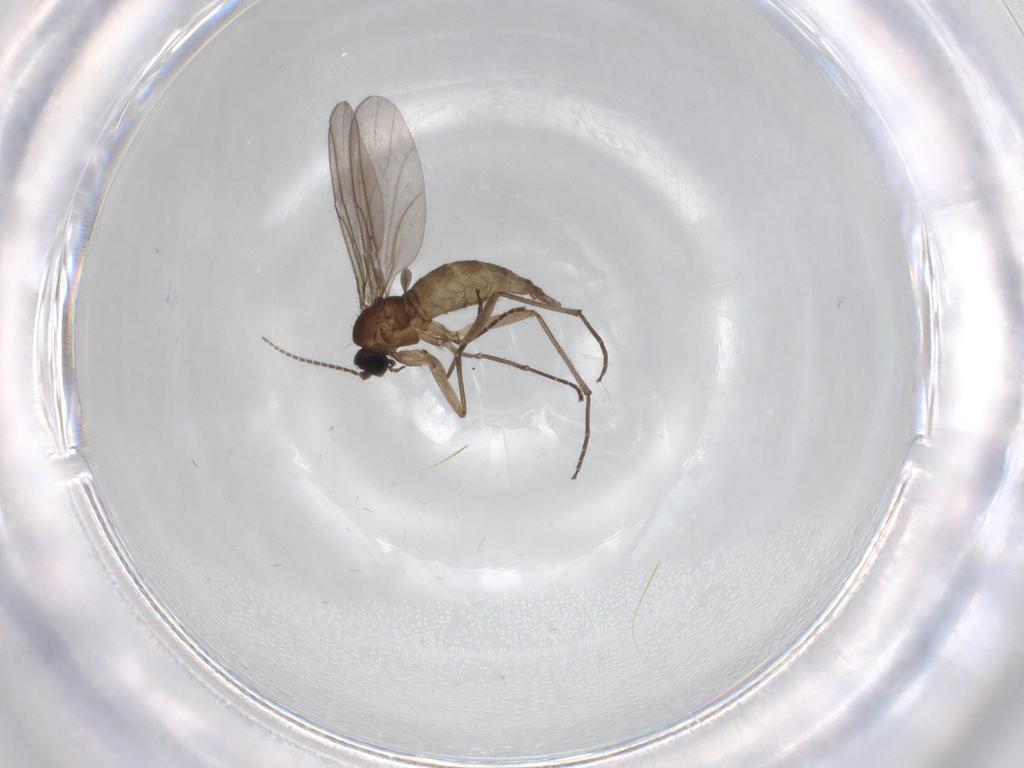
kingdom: Animalia
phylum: Arthropoda
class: Insecta
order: Diptera
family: Sciaridae
